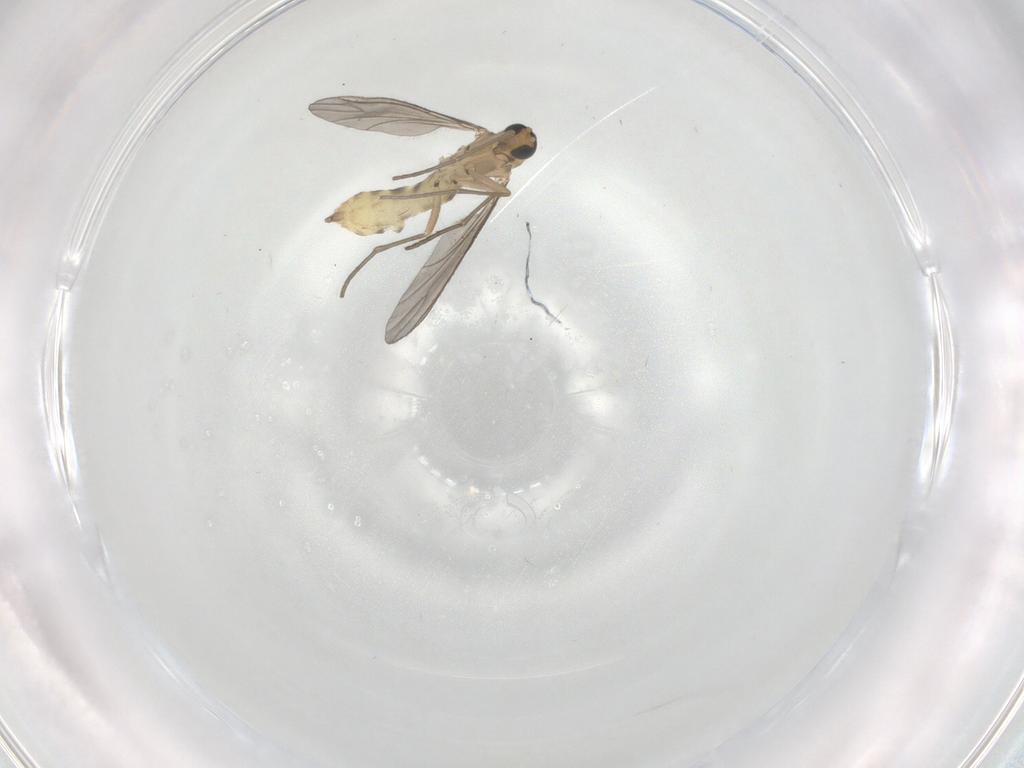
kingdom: Animalia
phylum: Arthropoda
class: Insecta
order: Diptera
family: Sciaridae
